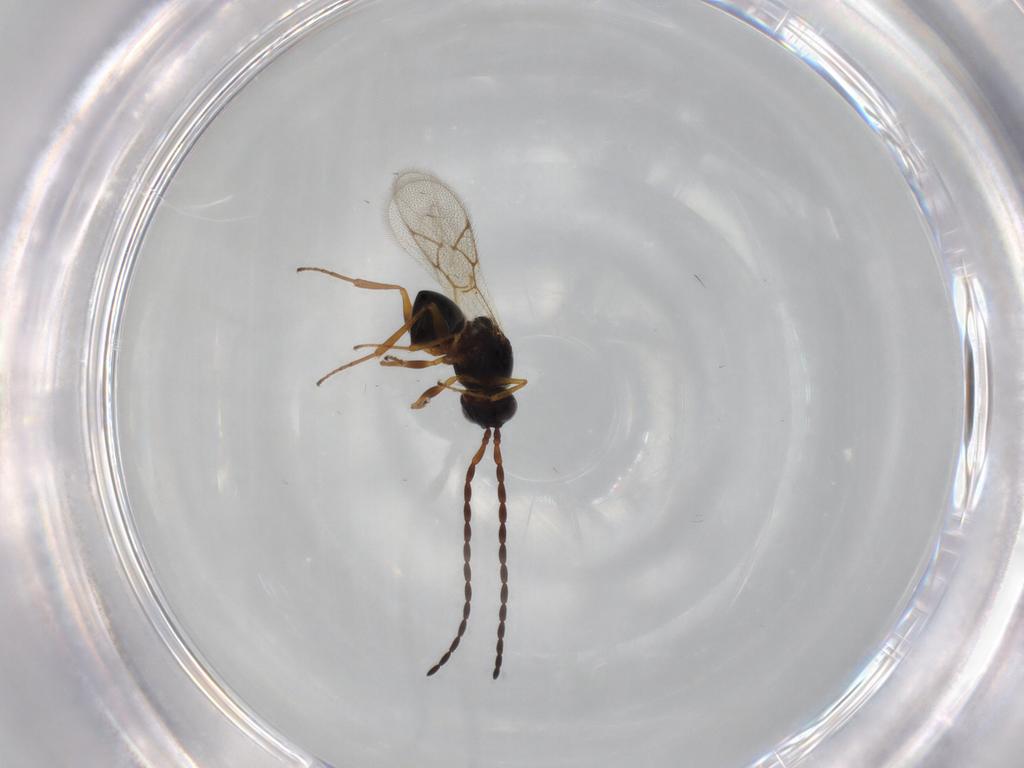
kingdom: Animalia
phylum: Arthropoda
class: Insecta
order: Hymenoptera
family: Figitidae
